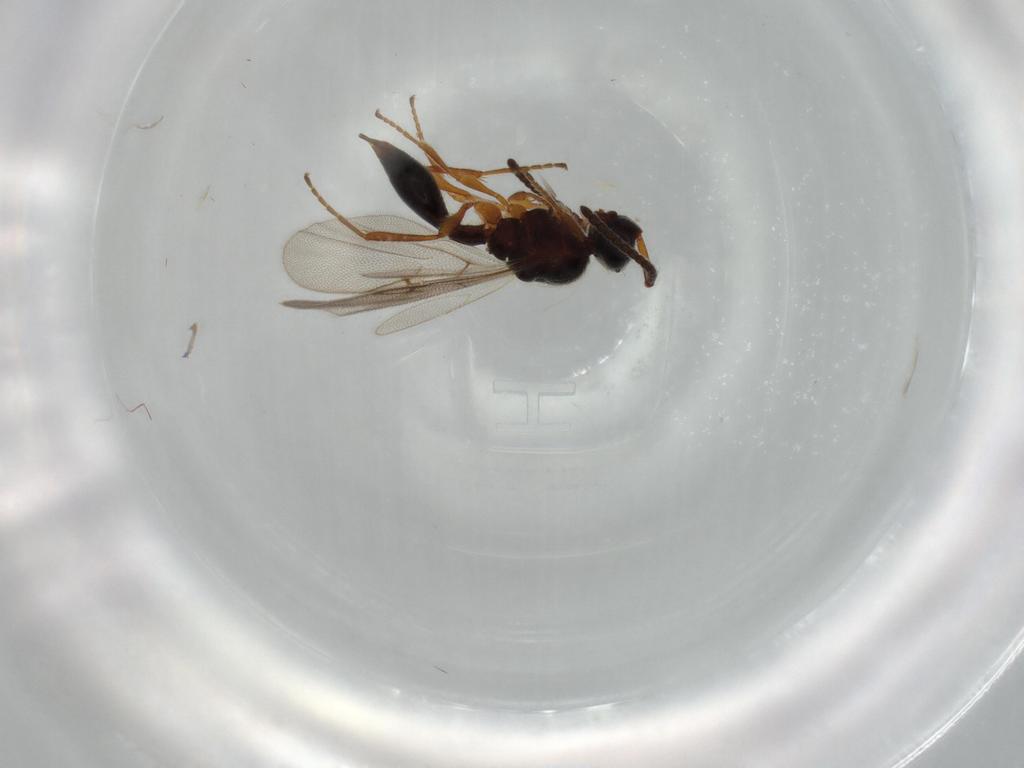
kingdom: Animalia
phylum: Arthropoda
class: Insecta
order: Hymenoptera
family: Diapriidae
